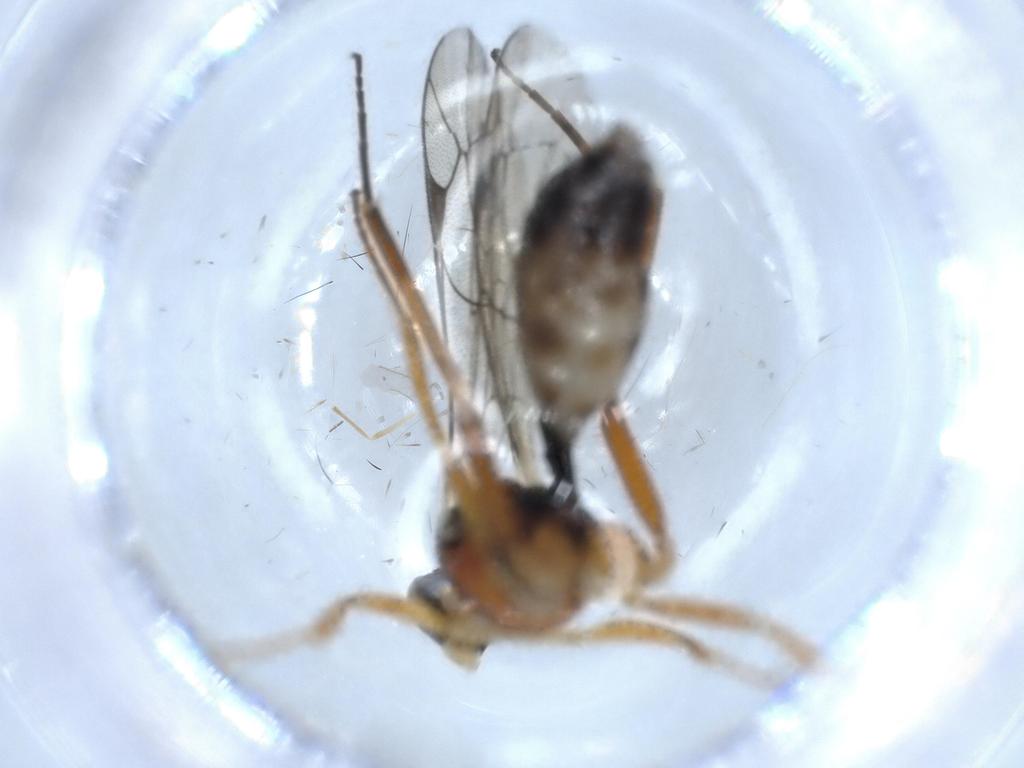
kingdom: Animalia
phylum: Arthropoda
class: Insecta
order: Hymenoptera
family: Ichneumonidae
